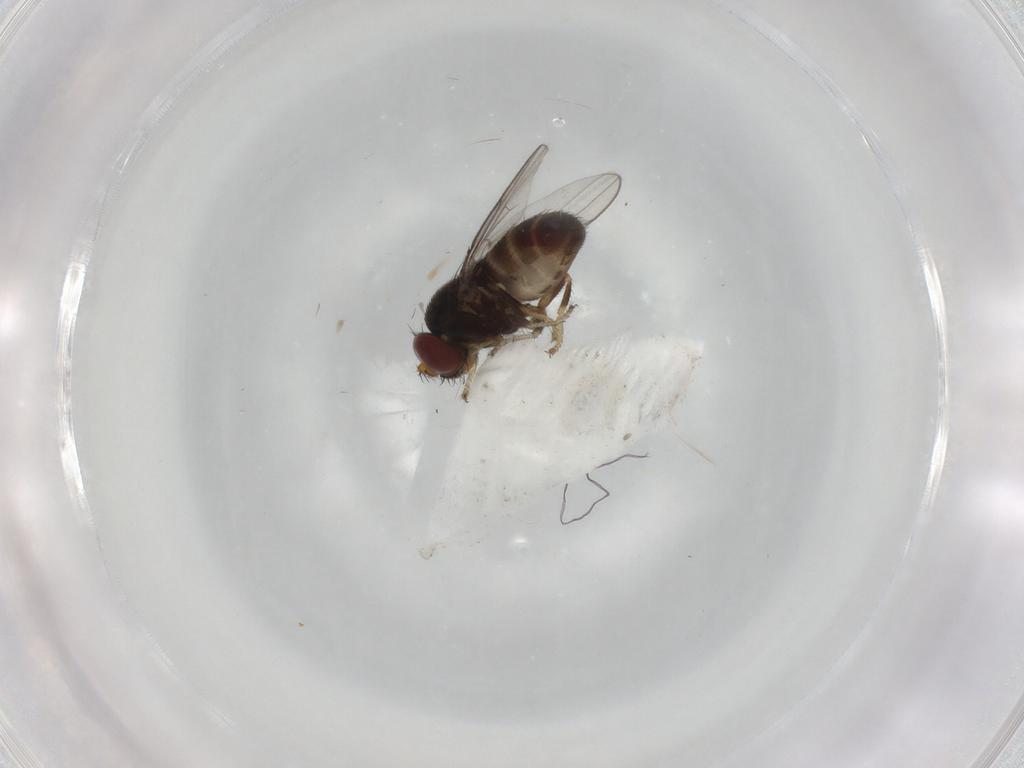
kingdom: Animalia
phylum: Arthropoda
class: Insecta
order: Diptera
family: Ephydridae
